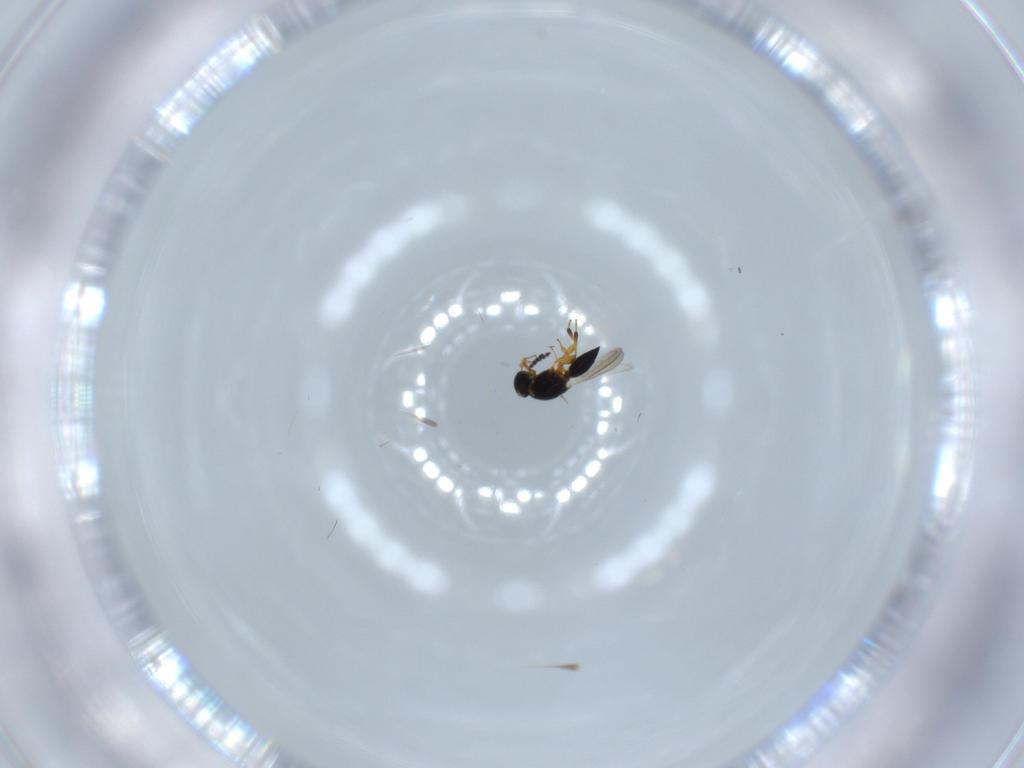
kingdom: Animalia
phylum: Arthropoda
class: Insecta
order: Hymenoptera
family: Platygastridae
